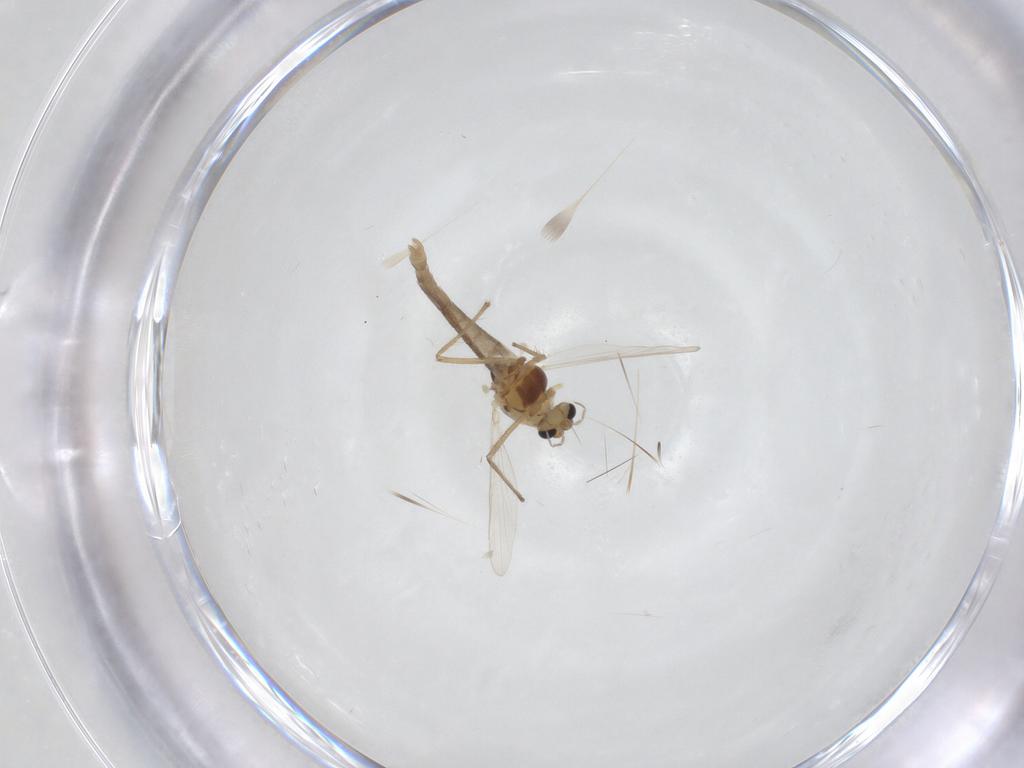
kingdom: Animalia
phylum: Arthropoda
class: Insecta
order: Diptera
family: Chironomidae
